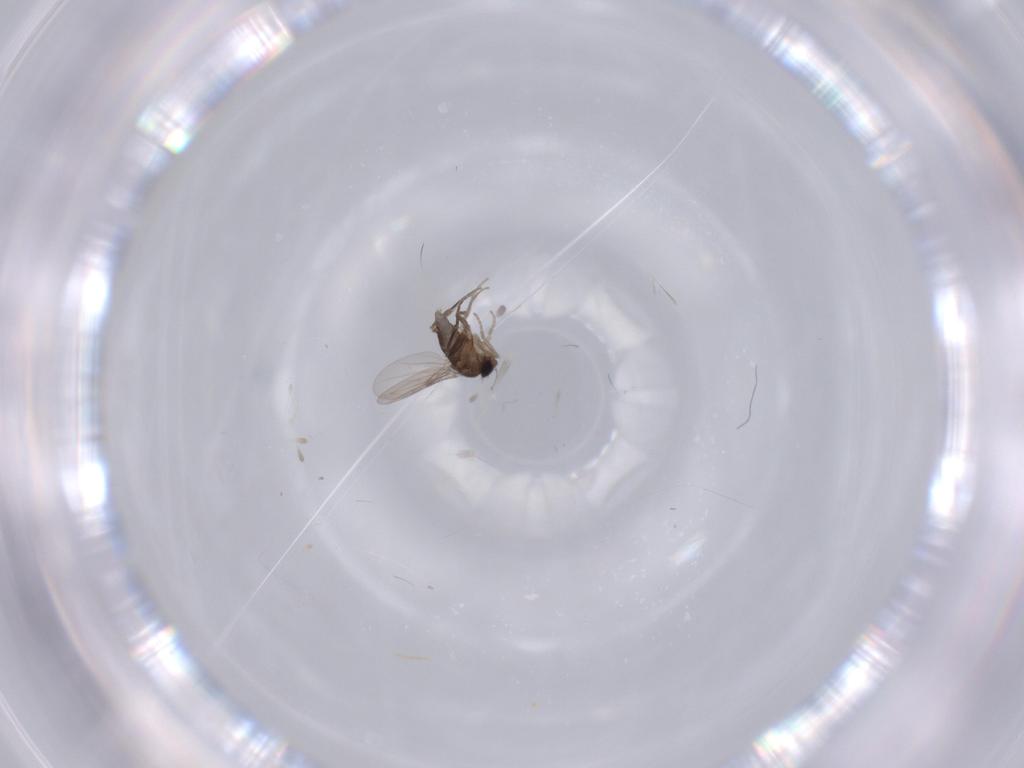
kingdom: Animalia
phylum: Arthropoda
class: Insecta
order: Diptera
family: Phoridae
